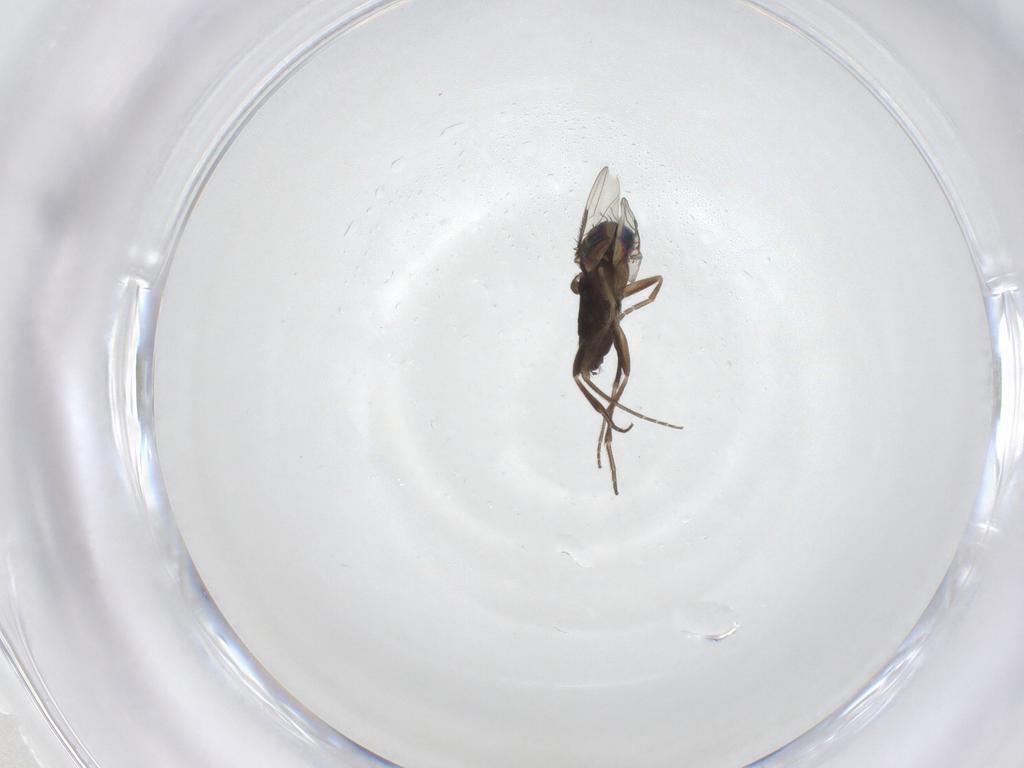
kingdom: Animalia
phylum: Arthropoda
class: Insecta
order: Diptera
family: Phoridae
